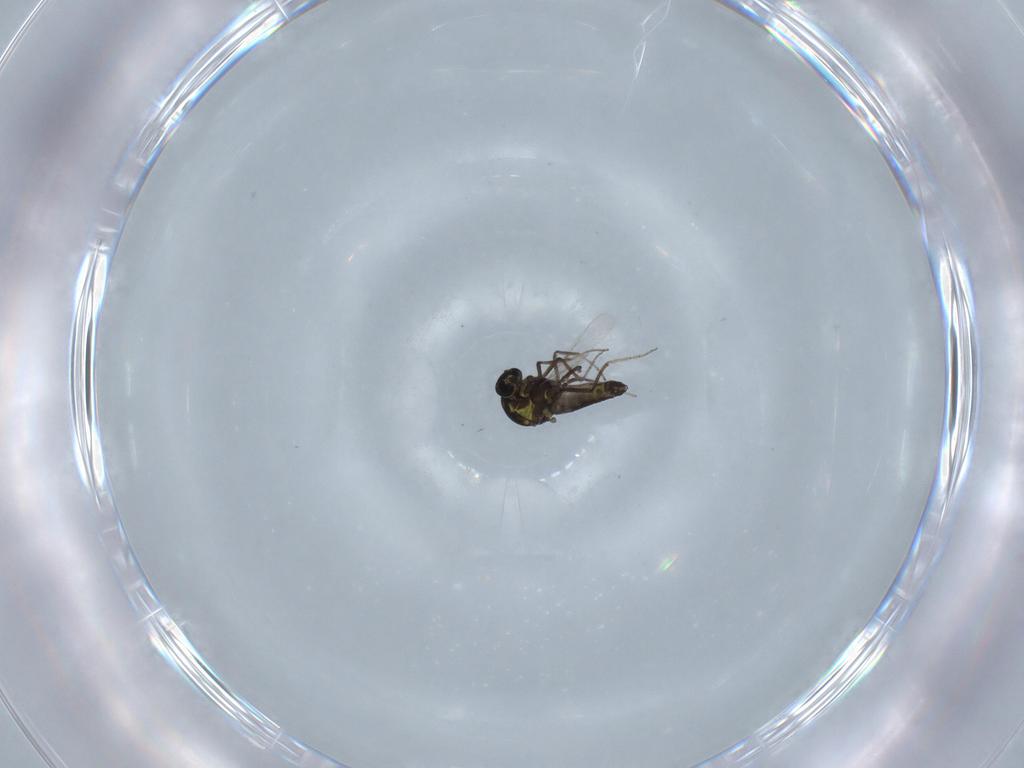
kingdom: Animalia
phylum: Arthropoda
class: Insecta
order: Diptera
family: Ceratopogonidae
